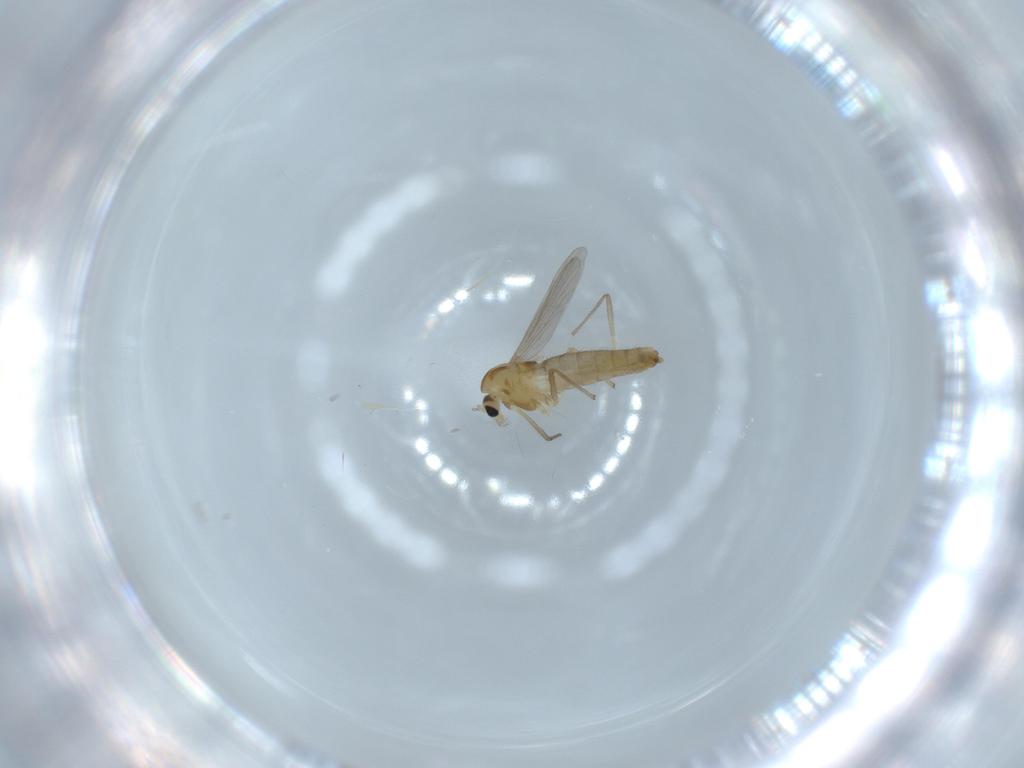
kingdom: Animalia
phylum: Arthropoda
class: Insecta
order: Diptera
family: Chironomidae
